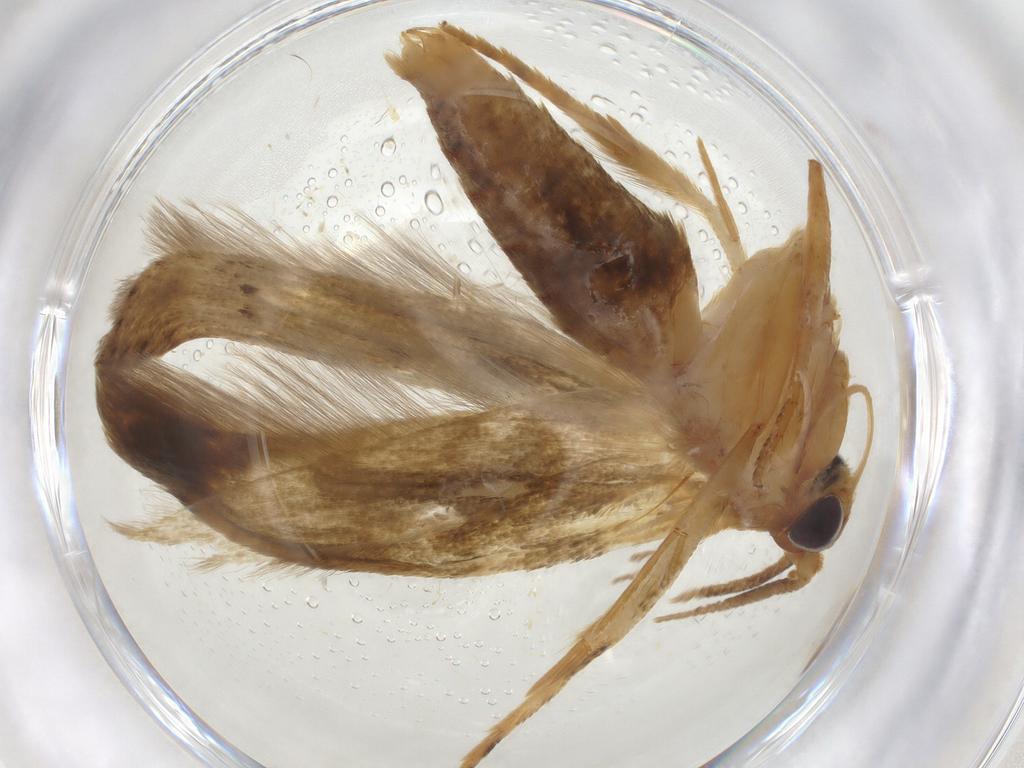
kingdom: Animalia
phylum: Arthropoda
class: Insecta
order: Lepidoptera
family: Blastobasidae
